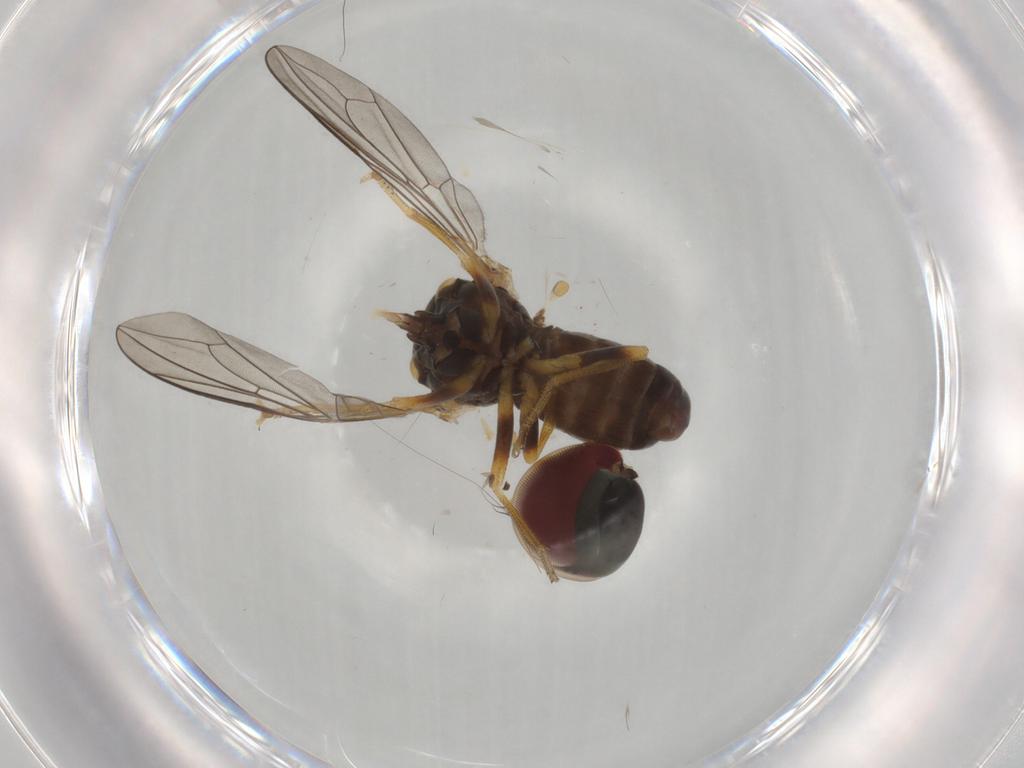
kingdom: Animalia
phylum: Arthropoda
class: Insecta
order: Diptera
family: Pipunculidae
